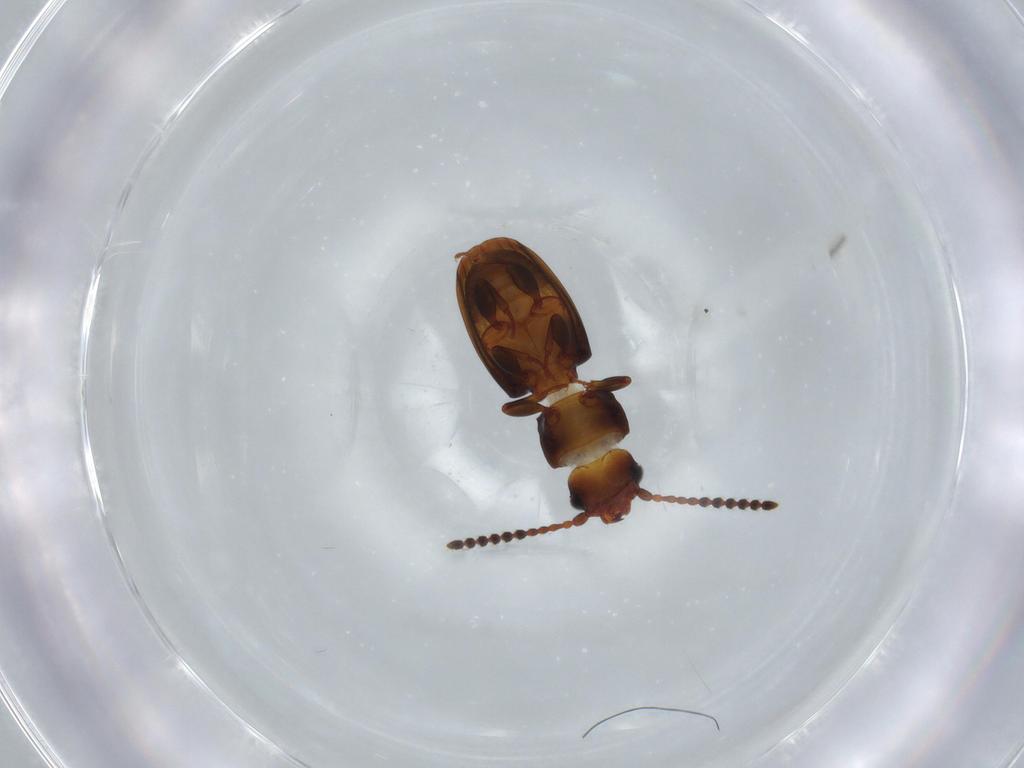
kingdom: Animalia
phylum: Arthropoda
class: Insecta
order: Coleoptera
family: Laemophloeidae
